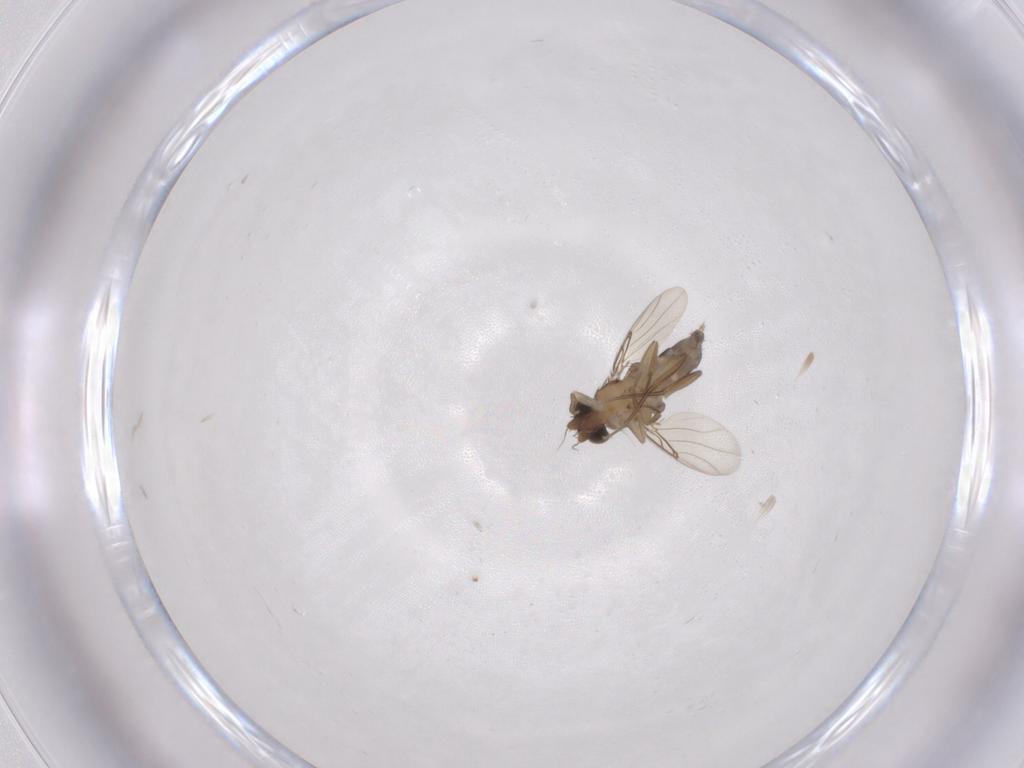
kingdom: Animalia
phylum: Arthropoda
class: Insecta
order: Diptera
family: Phoridae
